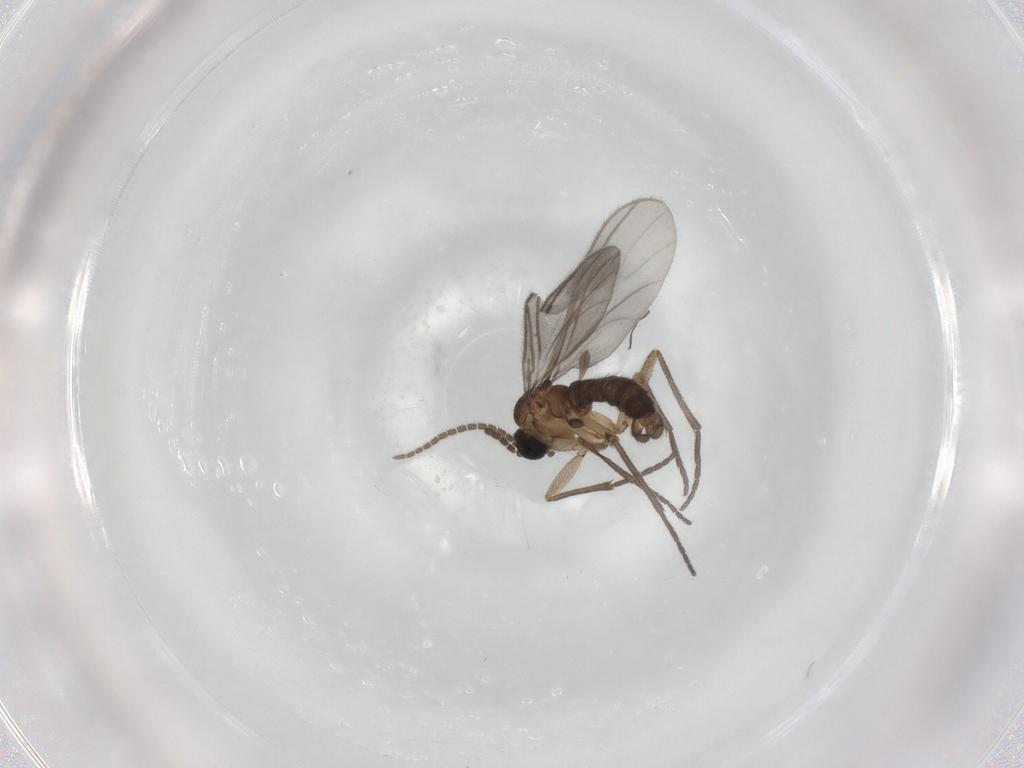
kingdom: Animalia
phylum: Arthropoda
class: Insecta
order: Diptera
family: Sciaridae
